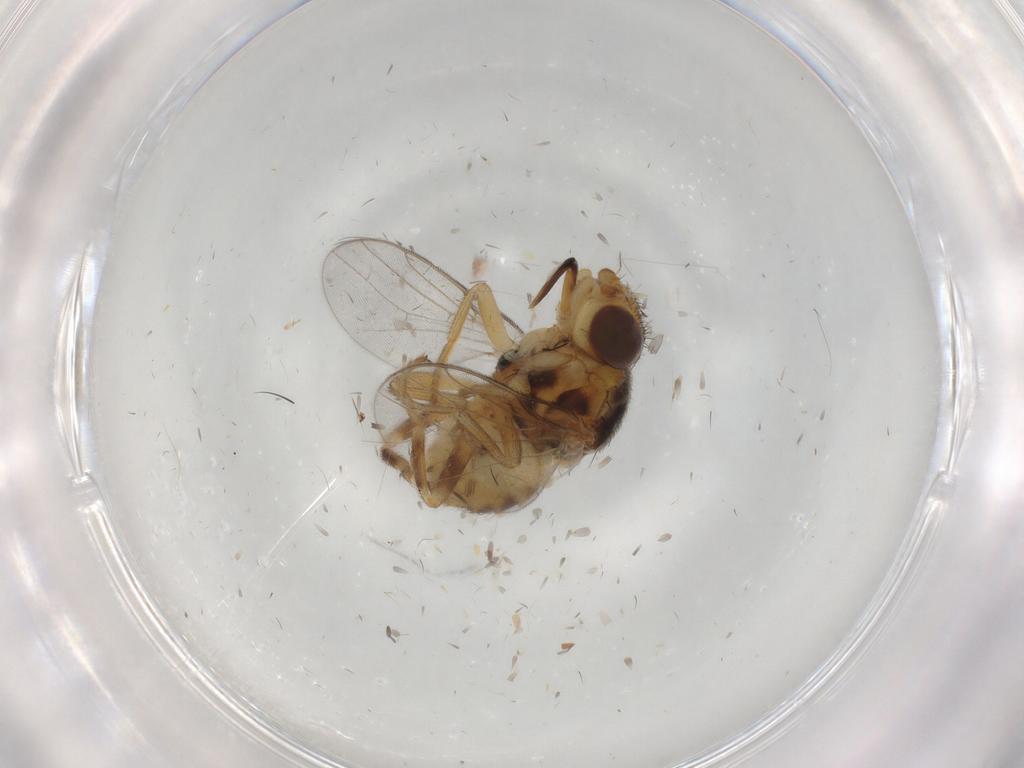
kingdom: Animalia
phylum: Arthropoda
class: Insecta
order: Diptera
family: Chloropidae
